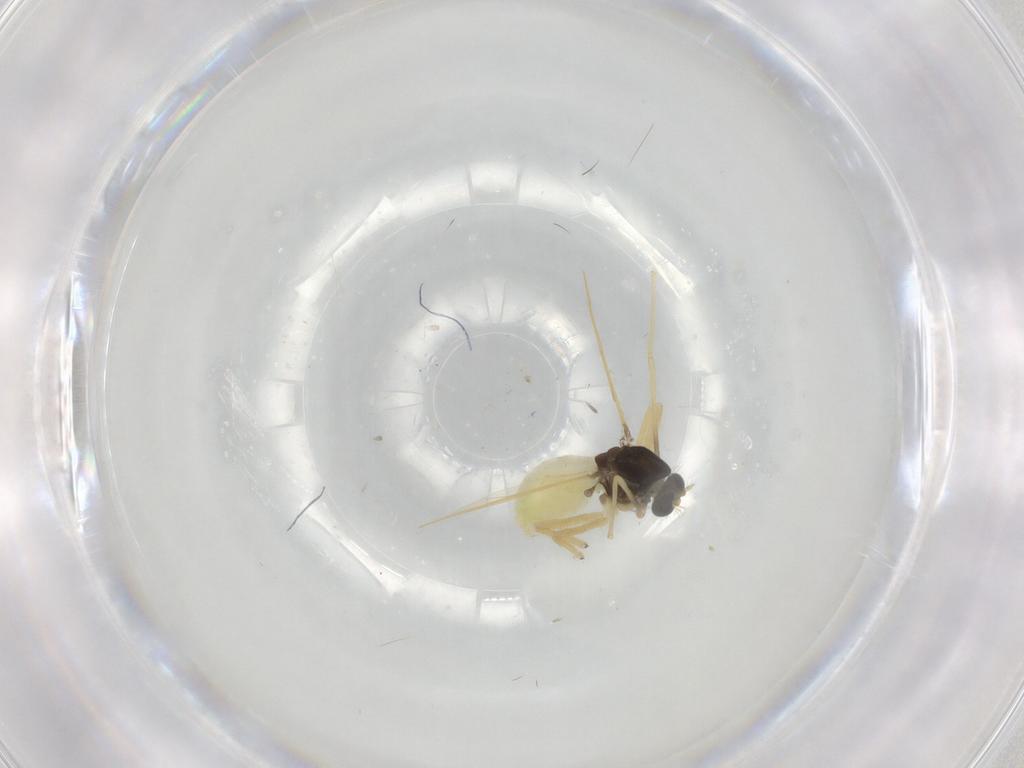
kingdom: Animalia
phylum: Arthropoda
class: Insecta
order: Diptera
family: Chironomidae
